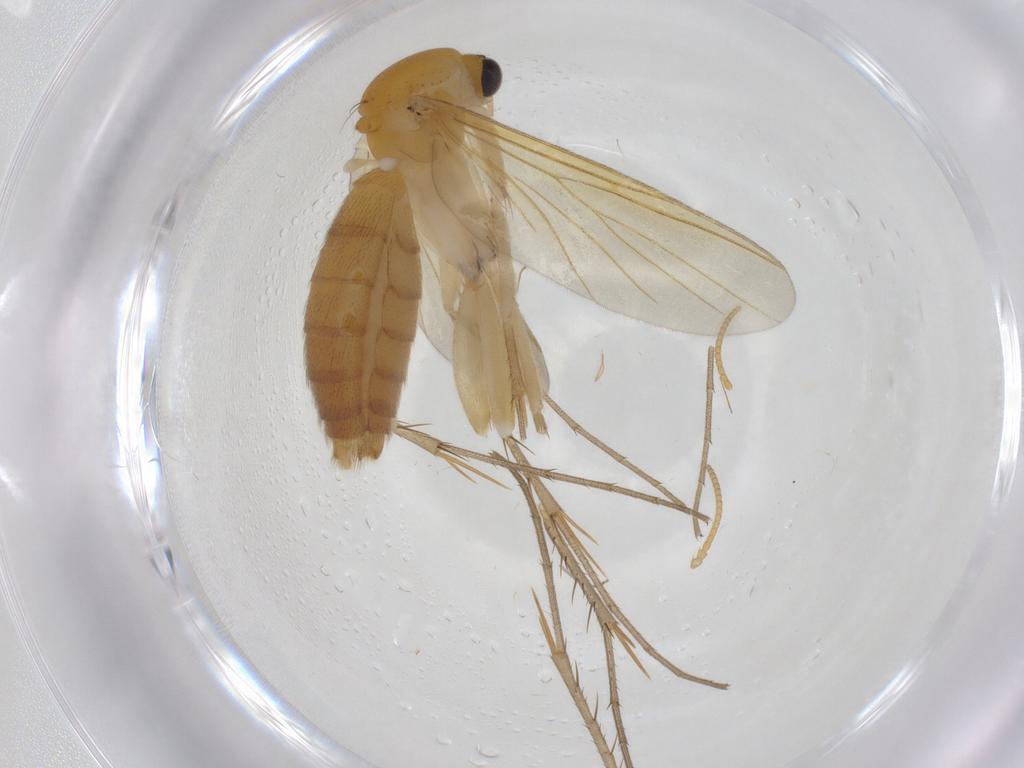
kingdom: Animalia
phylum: Arthropoda
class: Insecta
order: Diptera
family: Mycetophilidae
